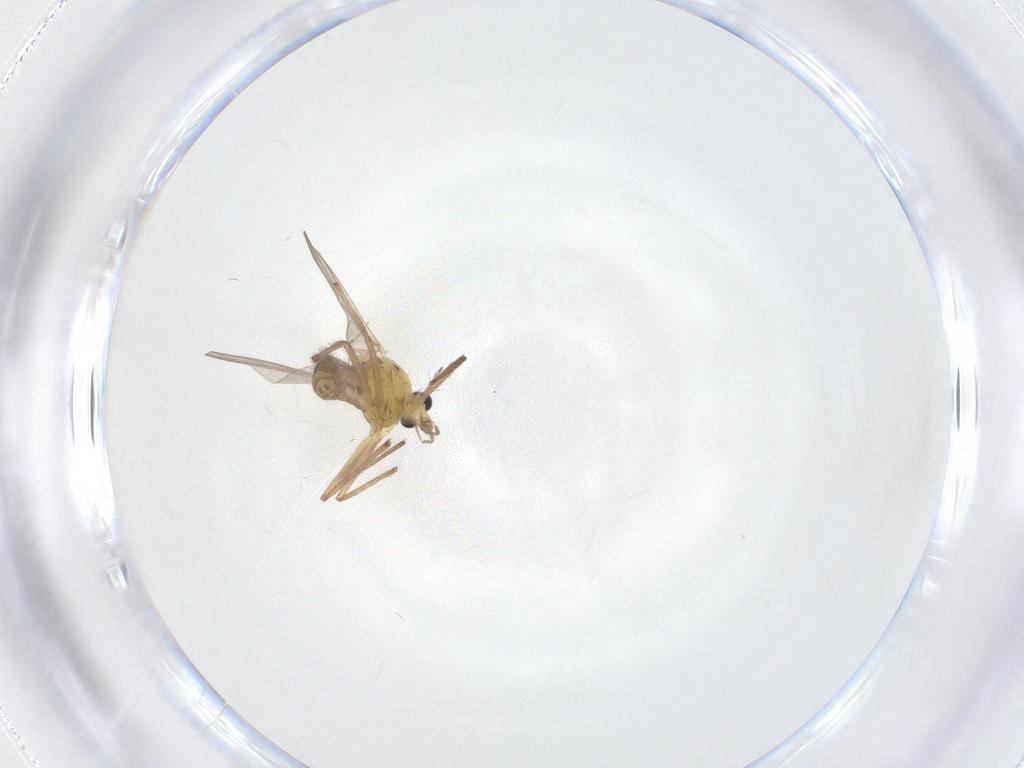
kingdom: Animalia
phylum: Arthropoda
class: Insecta
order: Diptera
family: Chironomidae
